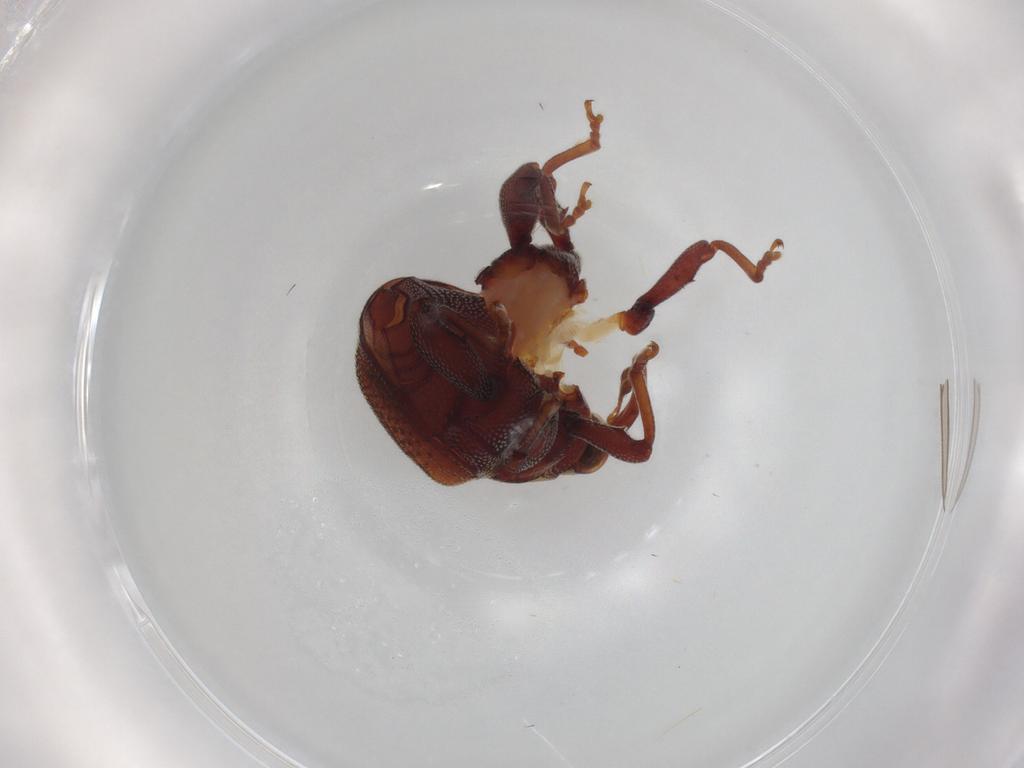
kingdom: Animalia
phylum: Arthropoda
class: Insecta
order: Coleoptera
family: Curculionidae
